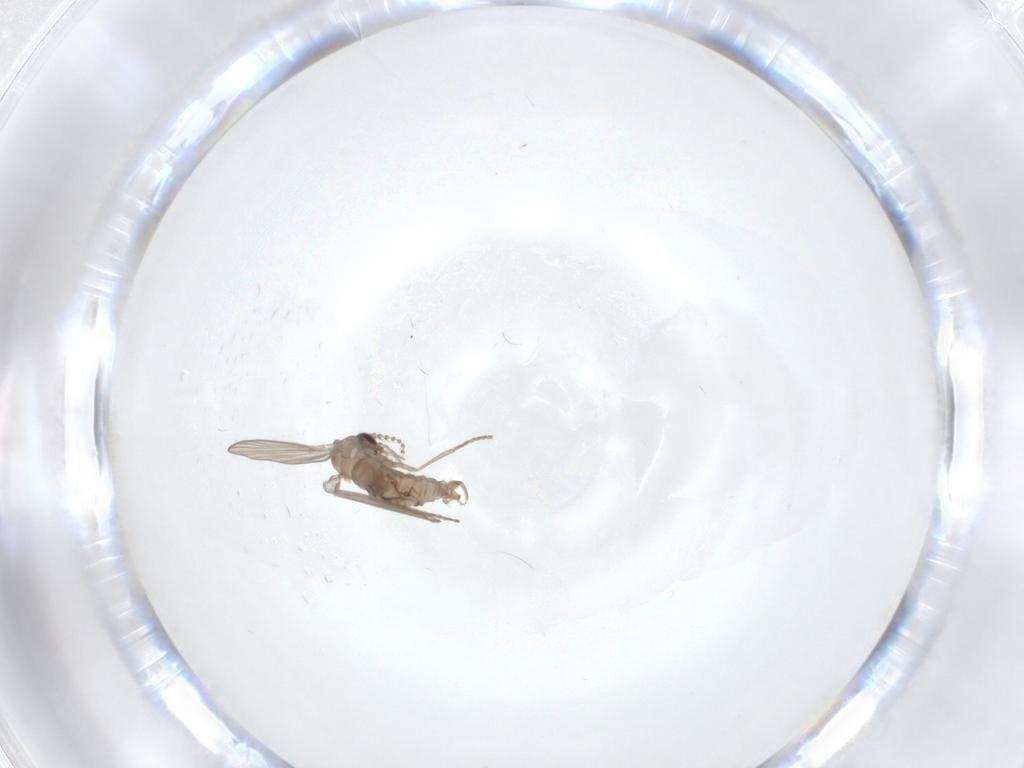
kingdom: Animalia
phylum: Arthropoda
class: Insecta
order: Diptera
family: Psychodidae
